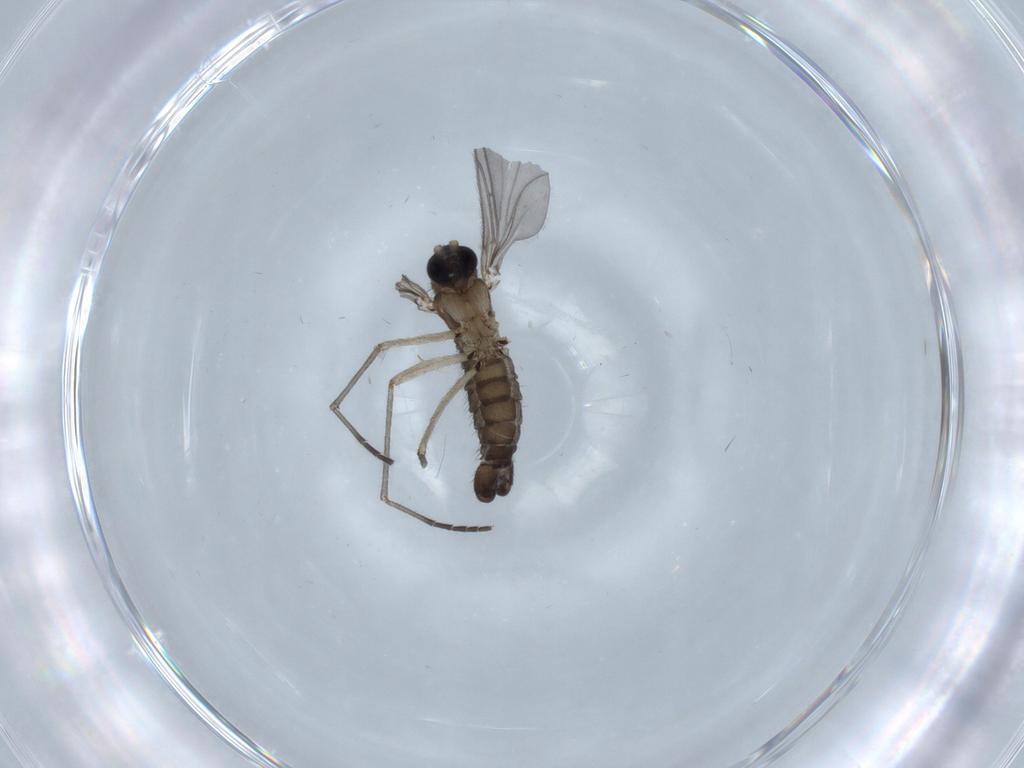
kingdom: Animalia
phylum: Arthropoda
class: Insecta
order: Diptera
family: Sciaridae
